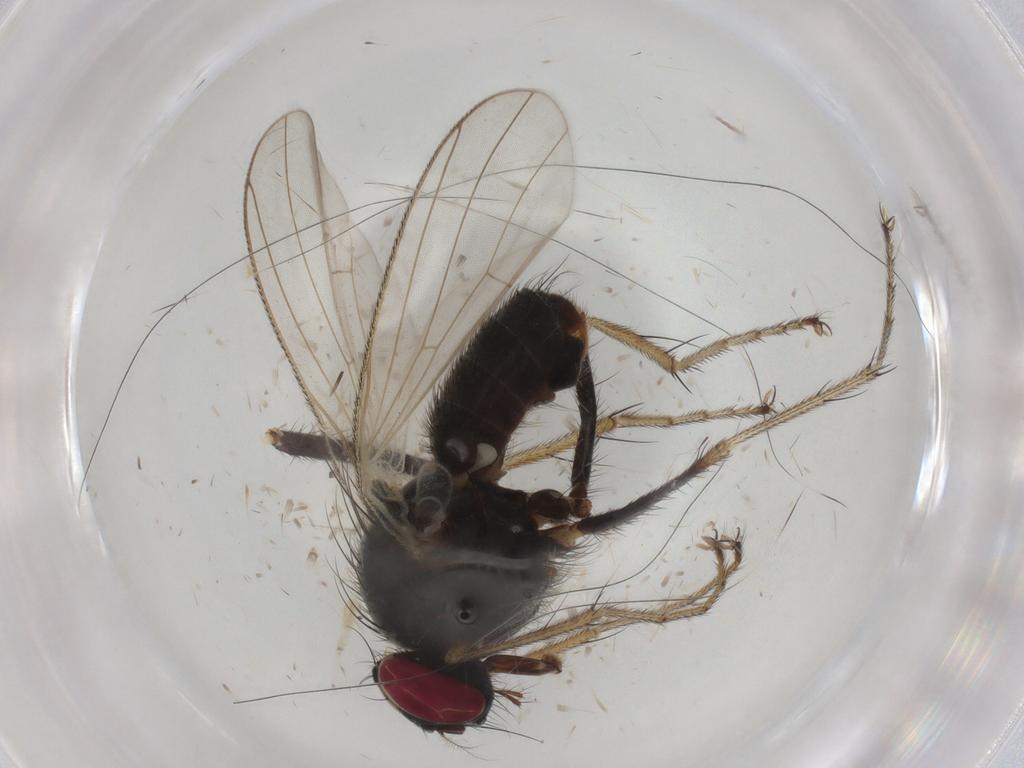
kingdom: Animalia
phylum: Arthropoda
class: Insecta
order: Diptera
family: Muscidae
